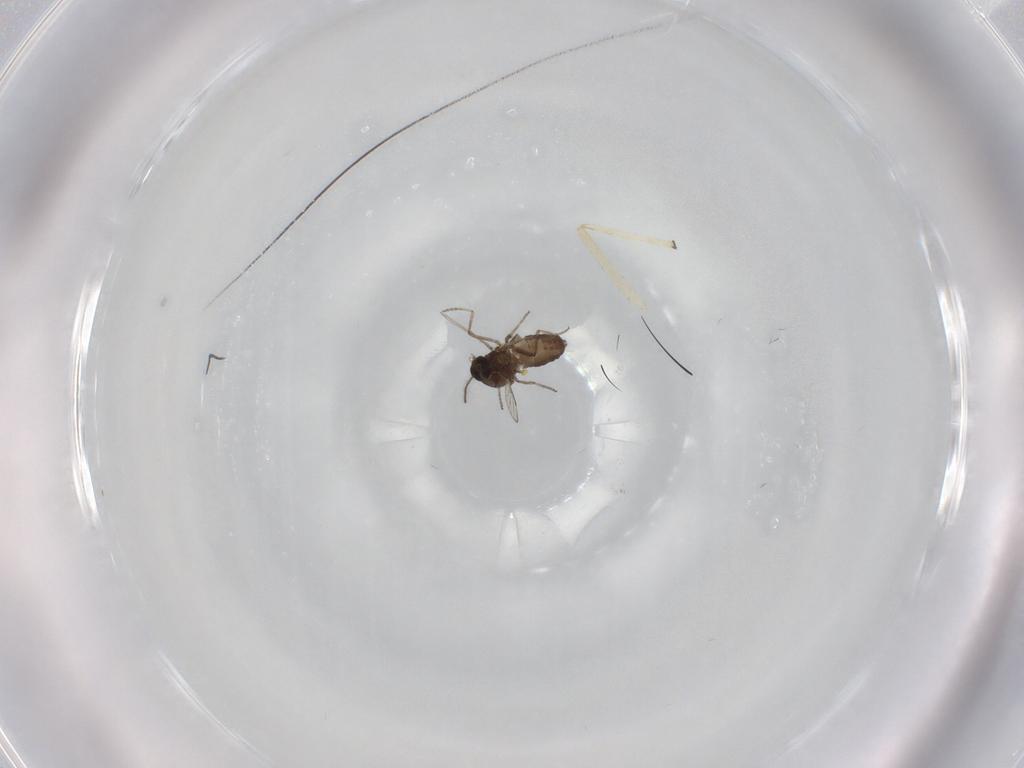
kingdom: Animalia
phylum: Arthropoda
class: Insecta
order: Diptera
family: Ceratopogonidae
